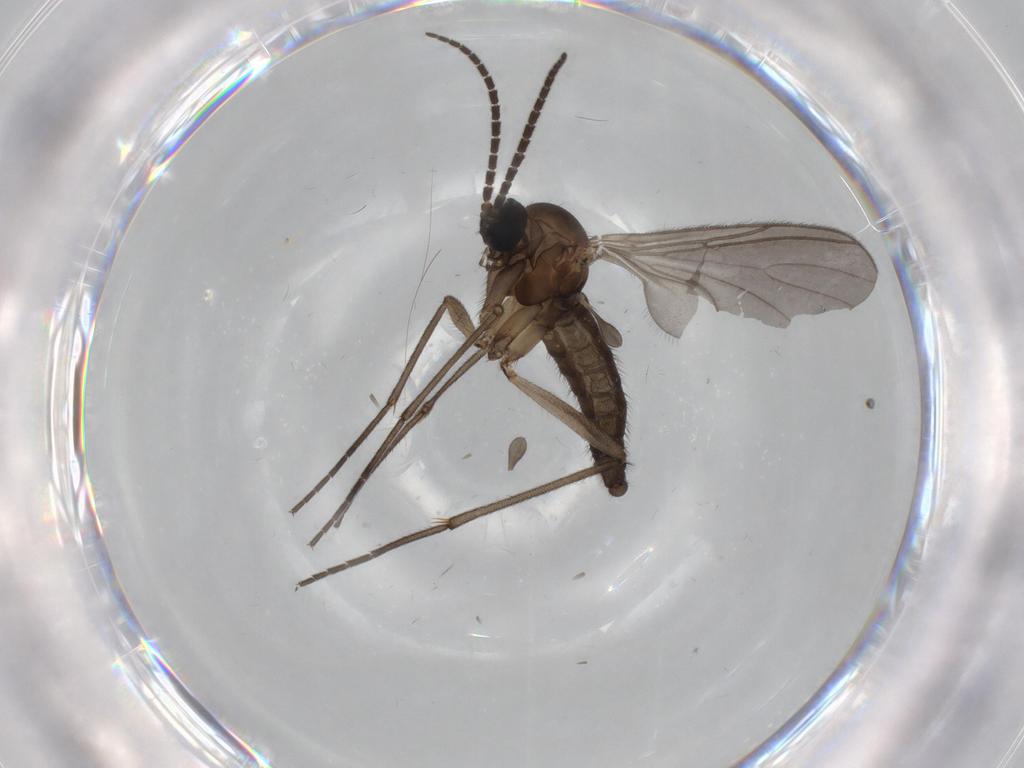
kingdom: Animalia
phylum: Arthropoda
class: Insecta
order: Diptera
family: Sciaridae
